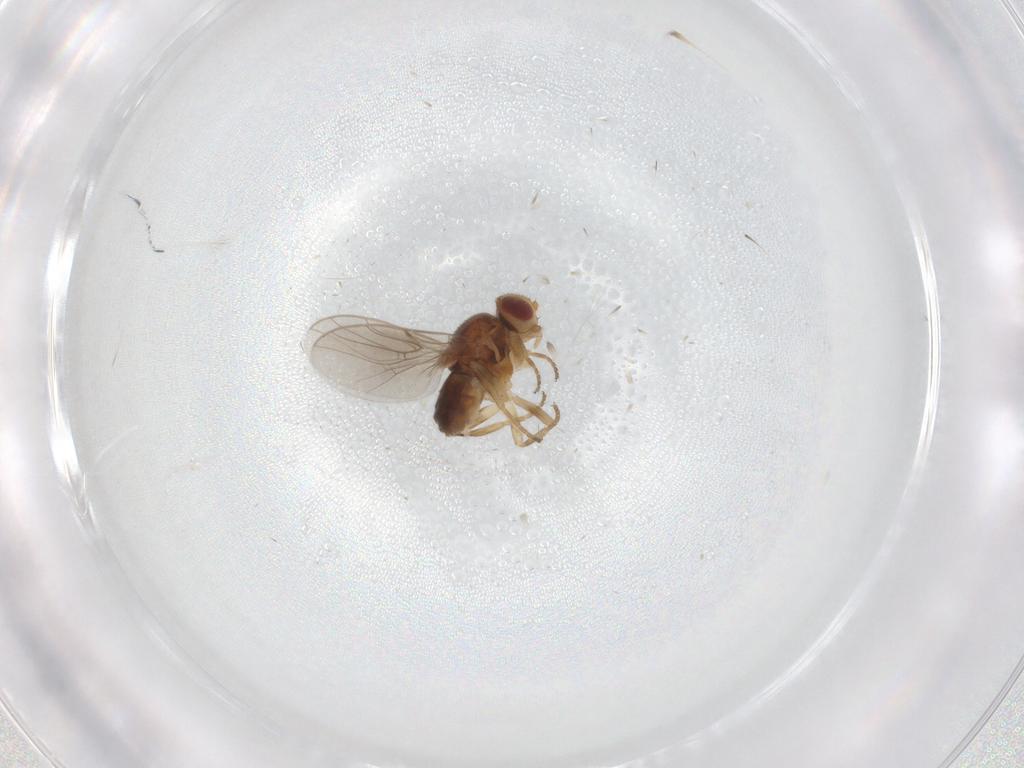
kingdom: Animalia
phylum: Arthropoda
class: Insecta
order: Diptera
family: Chloropidae
